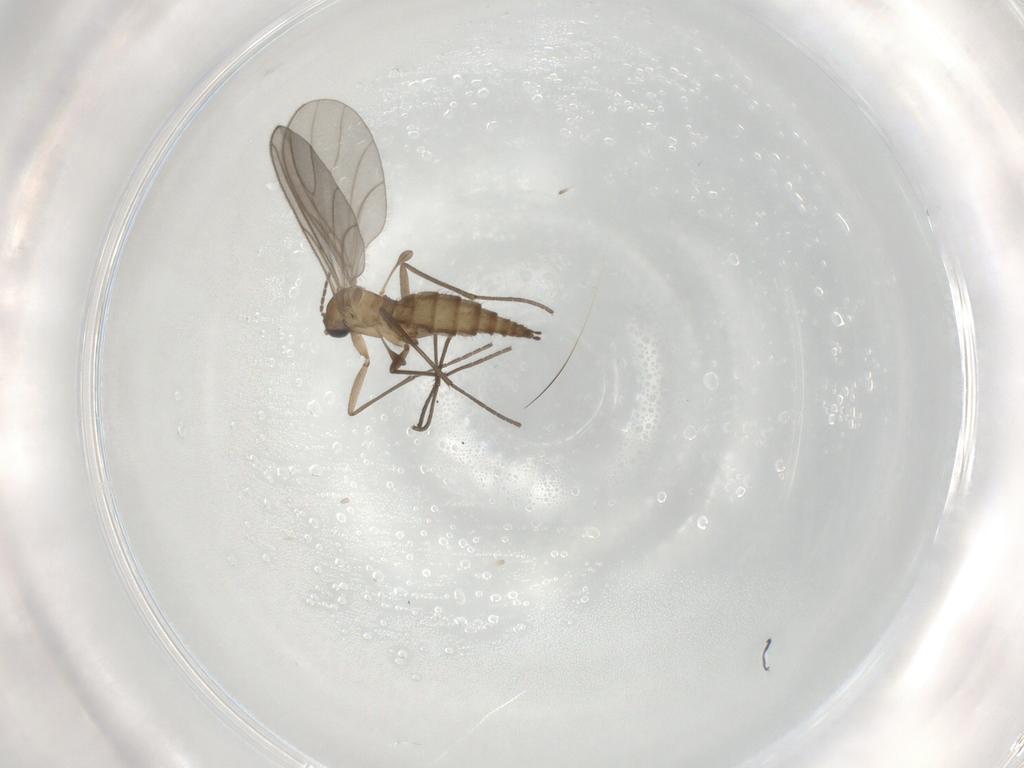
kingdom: Animalia
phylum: Arthropoda
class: Insecta
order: Diptera
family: Sciaridae
